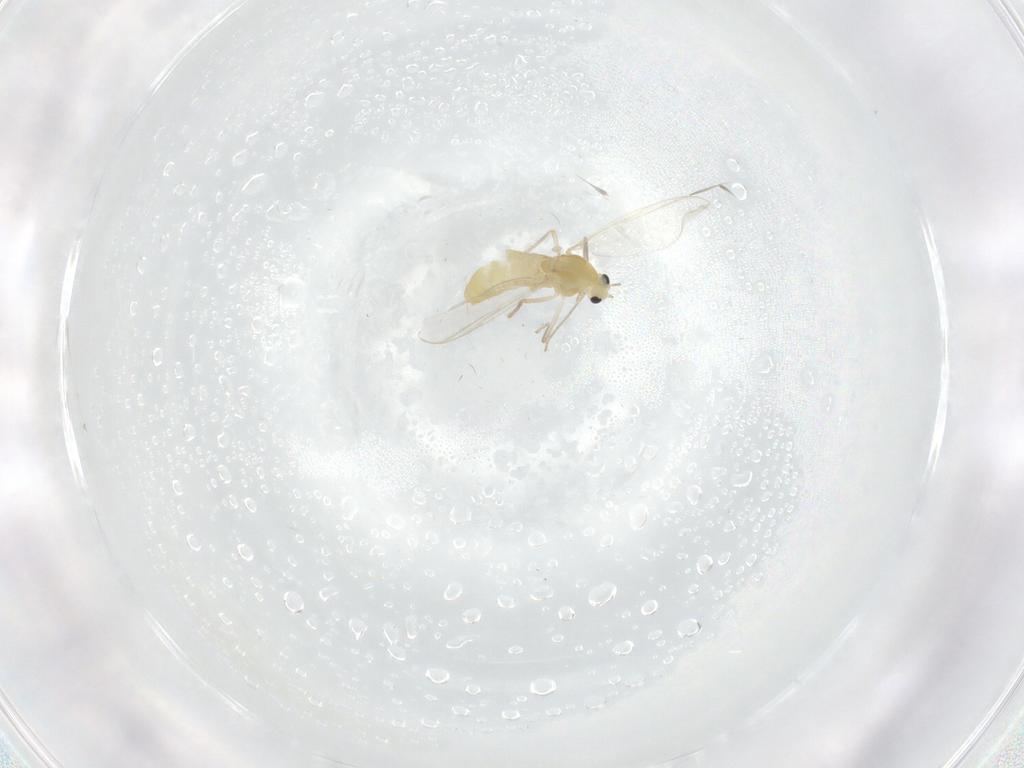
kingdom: Animalia
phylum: Arthropoda
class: Insecta
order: Diptera
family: Chironomidae
